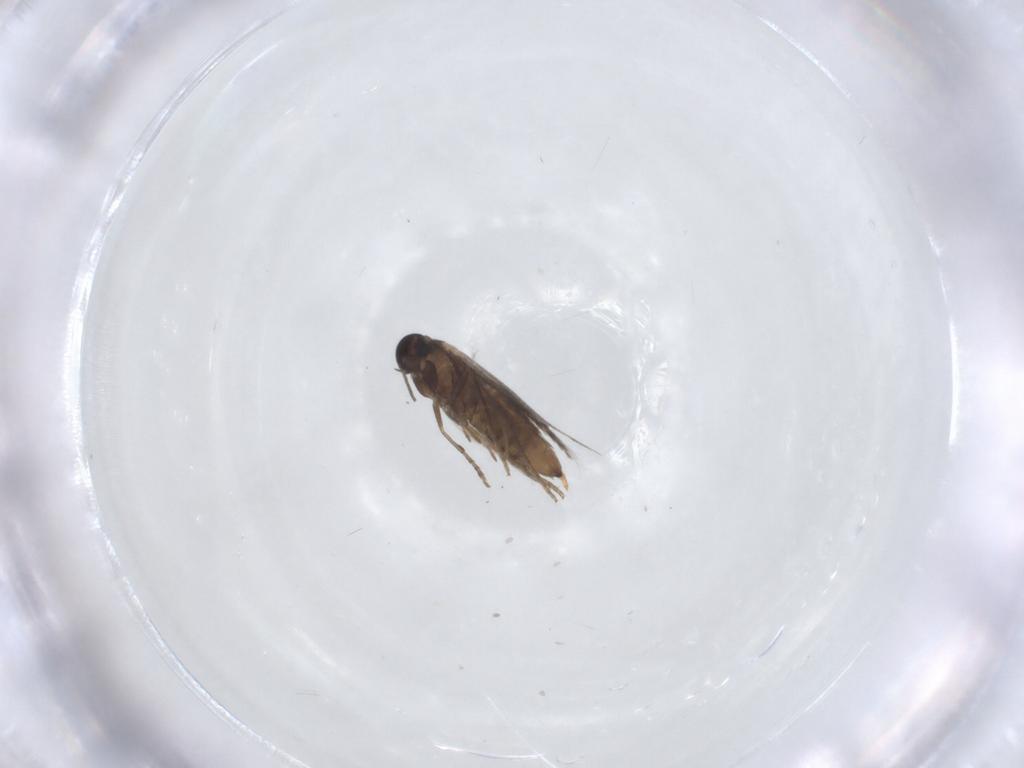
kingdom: Animalia
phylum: Arthropoda
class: Insecta
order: Lepidoptera
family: Heliozelidae
